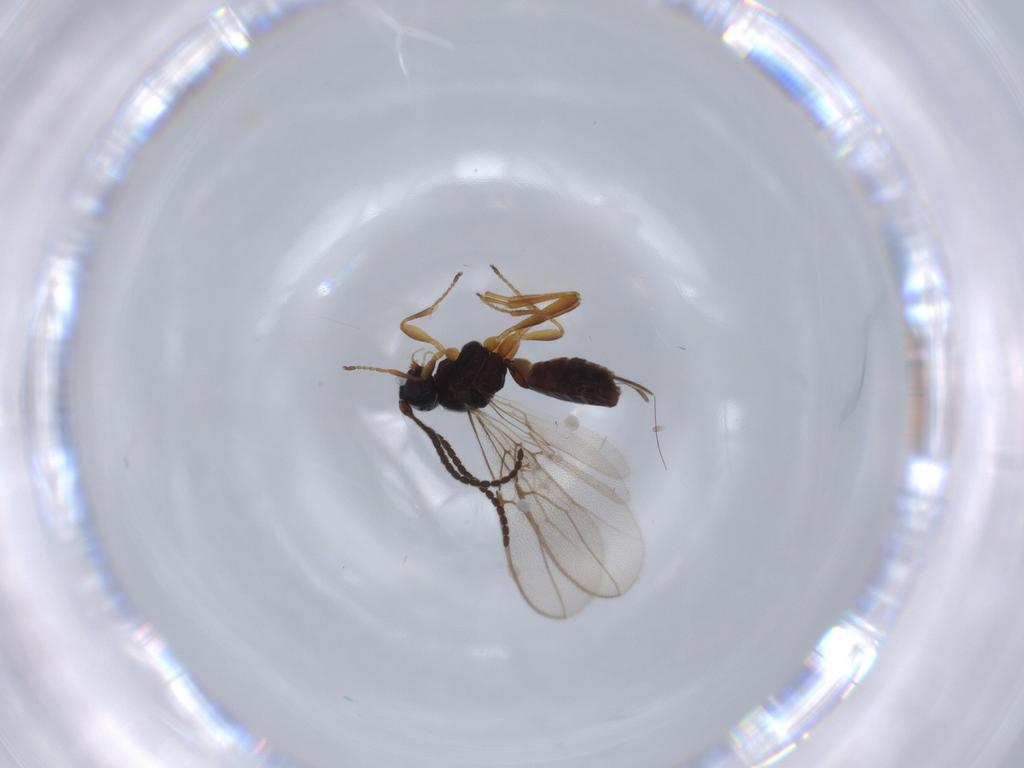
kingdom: Animalia
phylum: Arthropoda
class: Insecta
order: Hymenoptera
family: Braconidae
